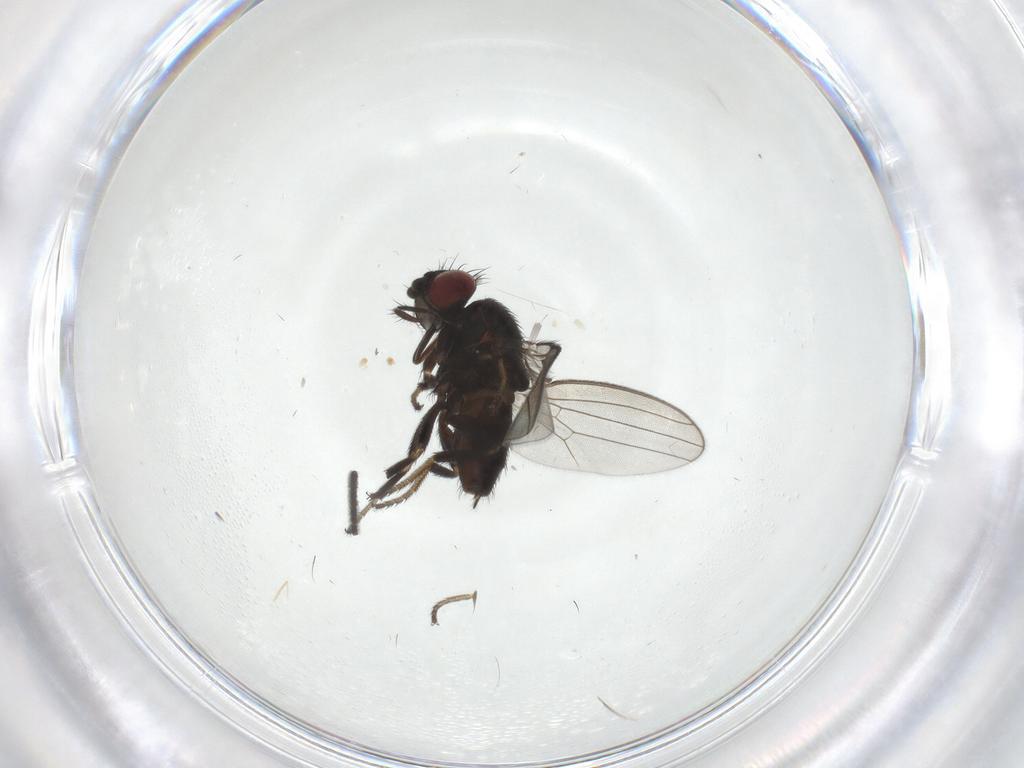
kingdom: Animalia
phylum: Arthropoda
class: Insecta
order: Diptera
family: Milichiidae
